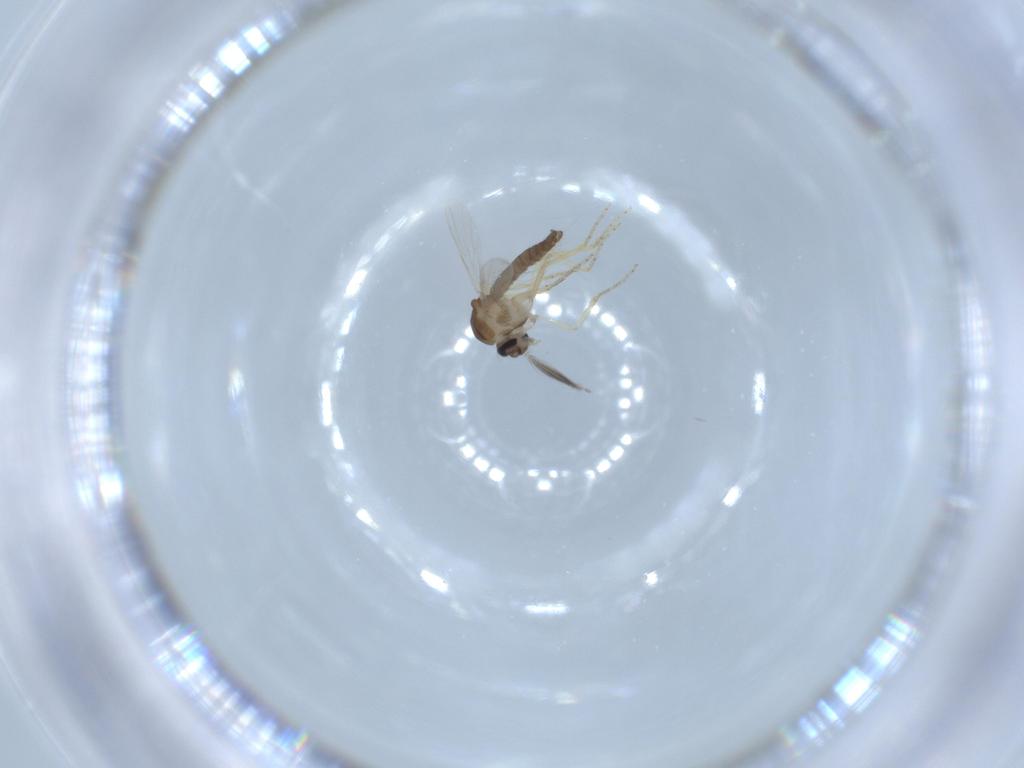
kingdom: Animalia
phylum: Arthropoda
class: Insecta
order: Diptera
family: Ceratopogonidae
